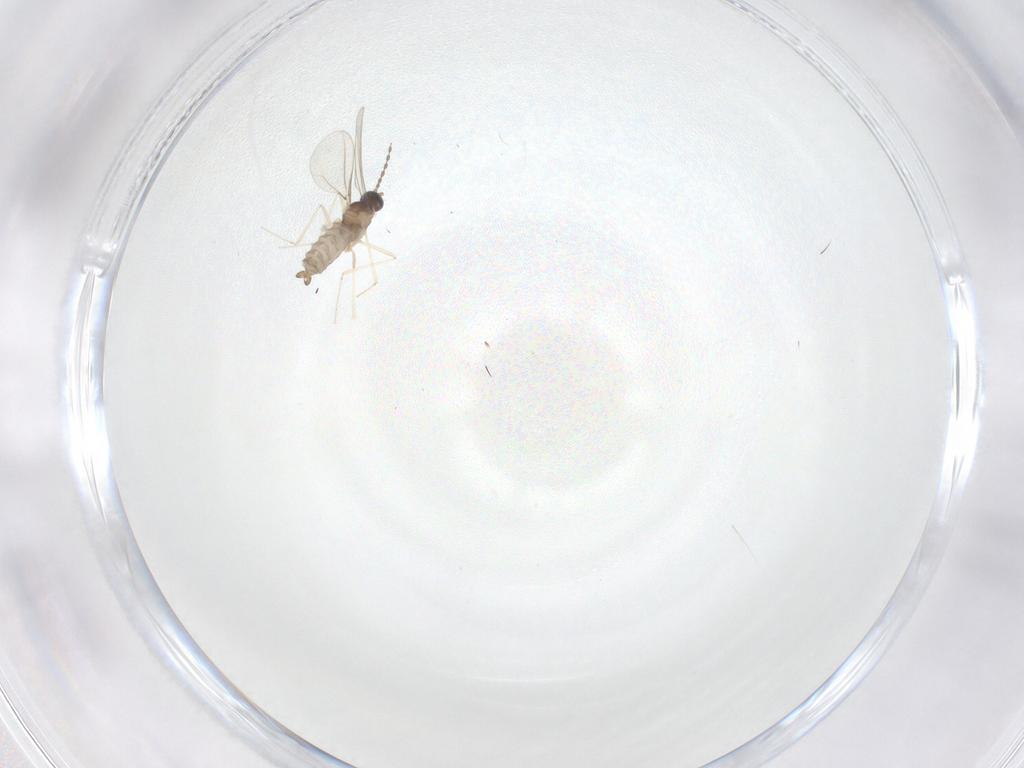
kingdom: Animalia
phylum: Arthropoda
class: Insecta
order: Diptera
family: Cecidomyiidae
